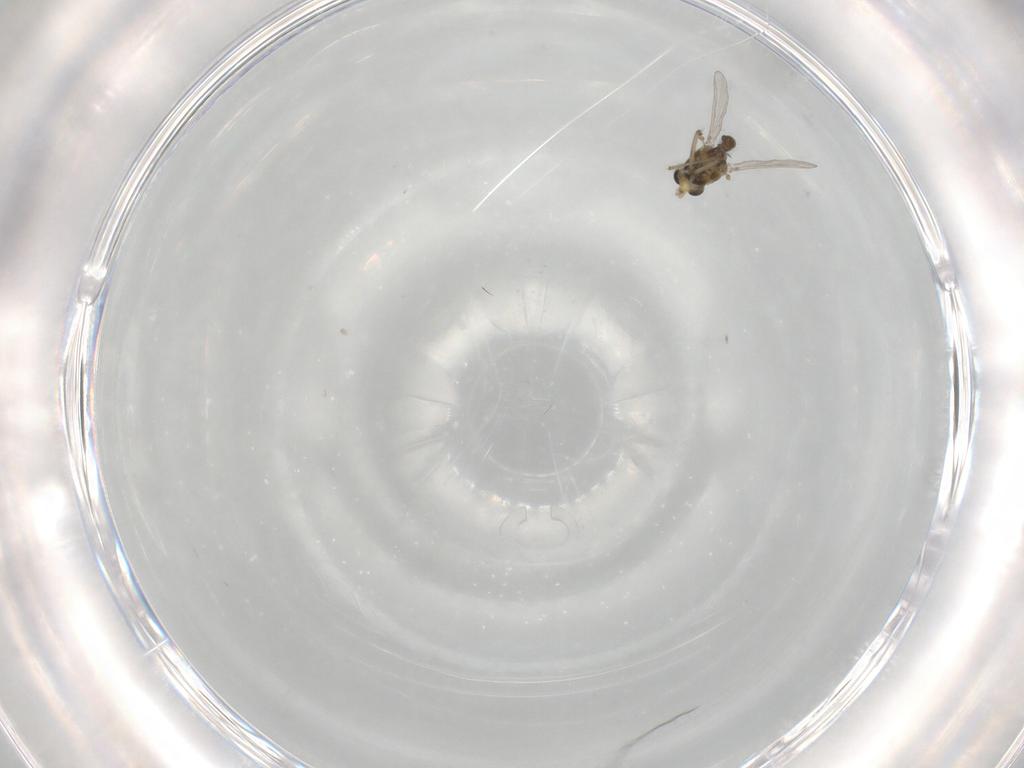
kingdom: Animalia
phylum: Arthropoda
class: Insecta
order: Diptera
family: Chironomidae
